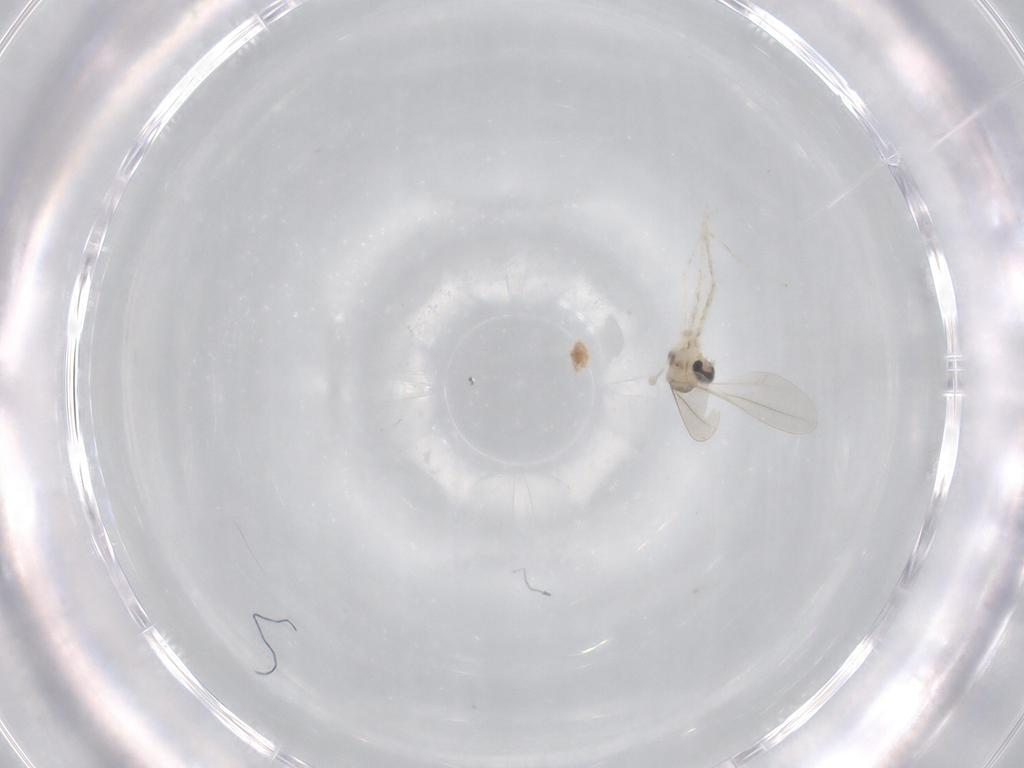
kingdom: Animalia
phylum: Arthropoda
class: Insecta
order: Diptera
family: Cecidomyiidae
